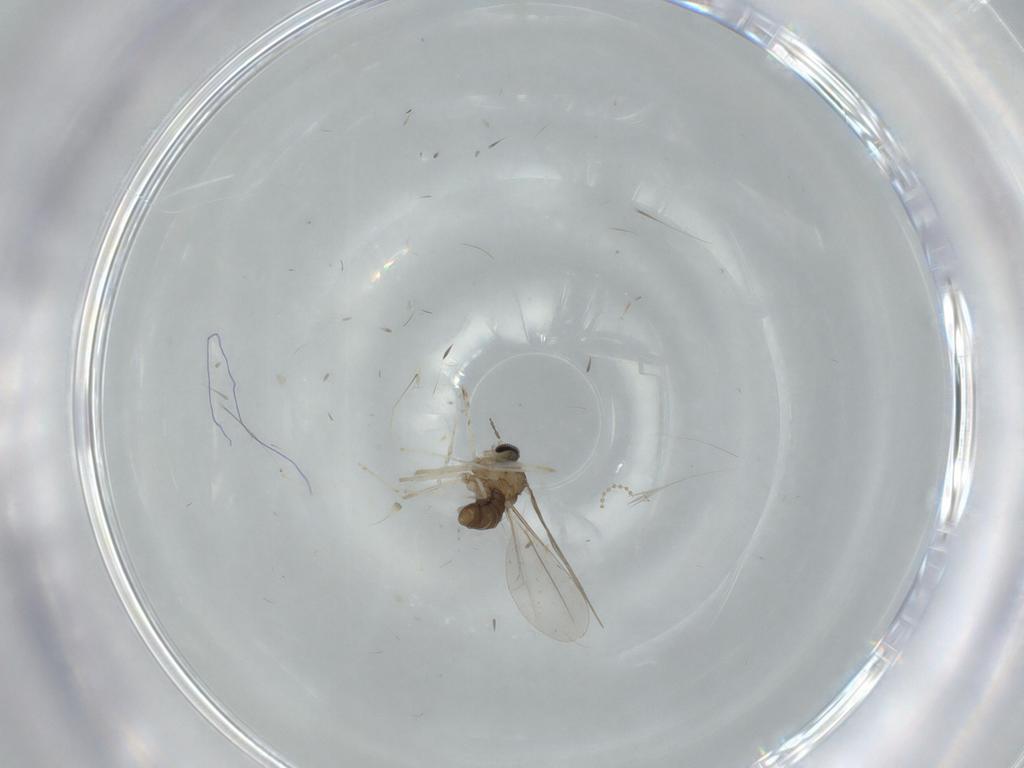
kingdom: Animalia
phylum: Arthropoda
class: Insecta
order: Diptera
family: Cecidomyiidae
